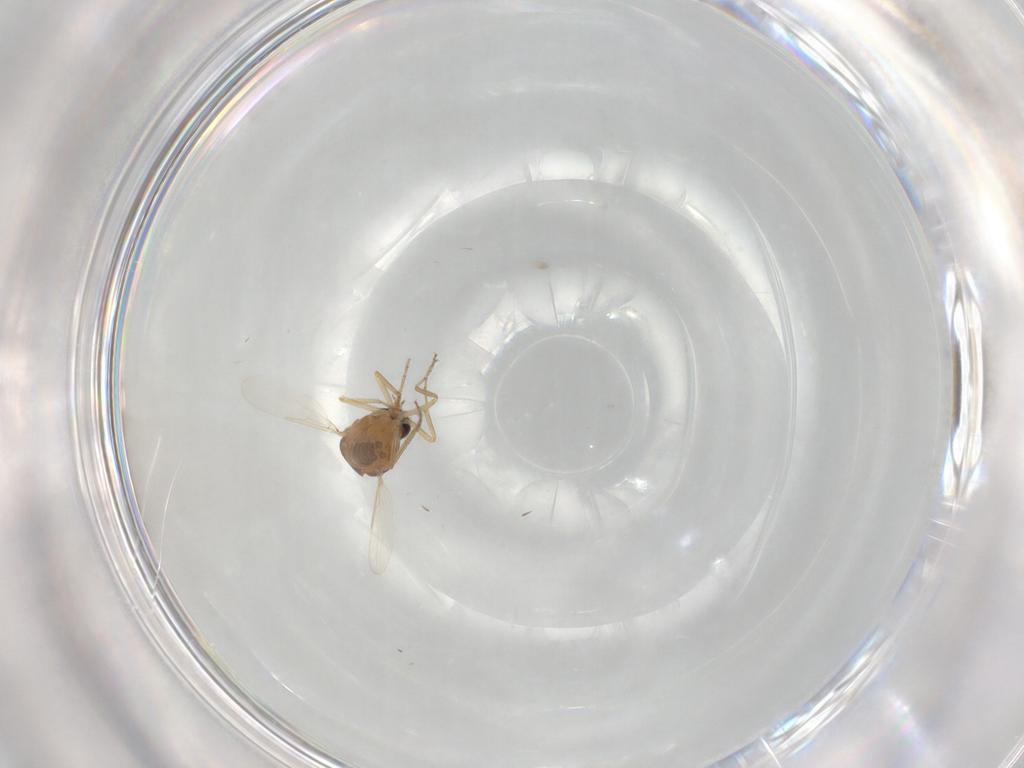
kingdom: Animalia
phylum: Arthropoda
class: Insecta
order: Diptera
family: Ceratopogonidae
